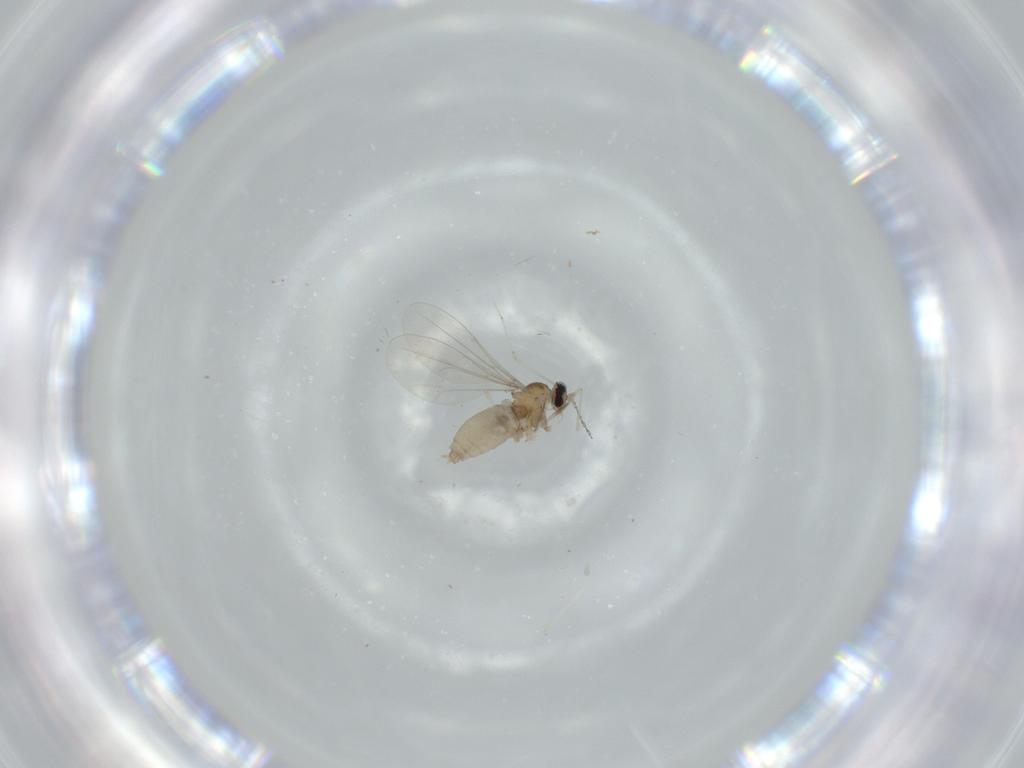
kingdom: Animalia
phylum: Arthropoda
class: Insecta
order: Diptera
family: Cecidomyiidae
